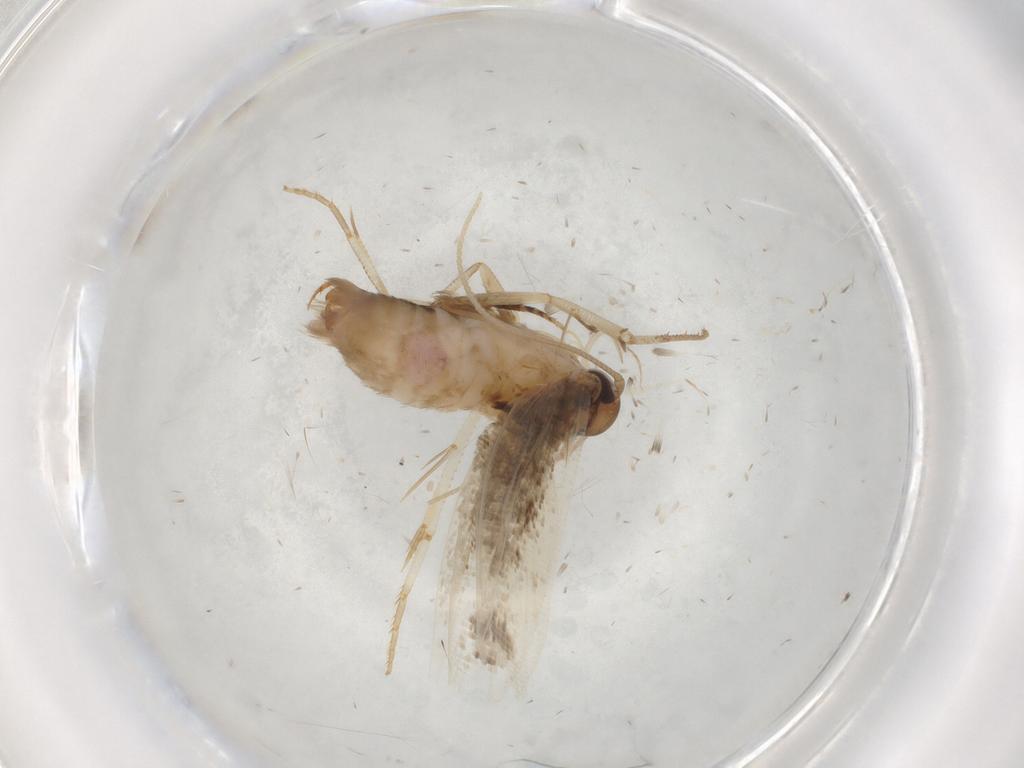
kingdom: Animalia
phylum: Arthropoda
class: Insecta
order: Lepidoptera
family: Cosmopterigidae
